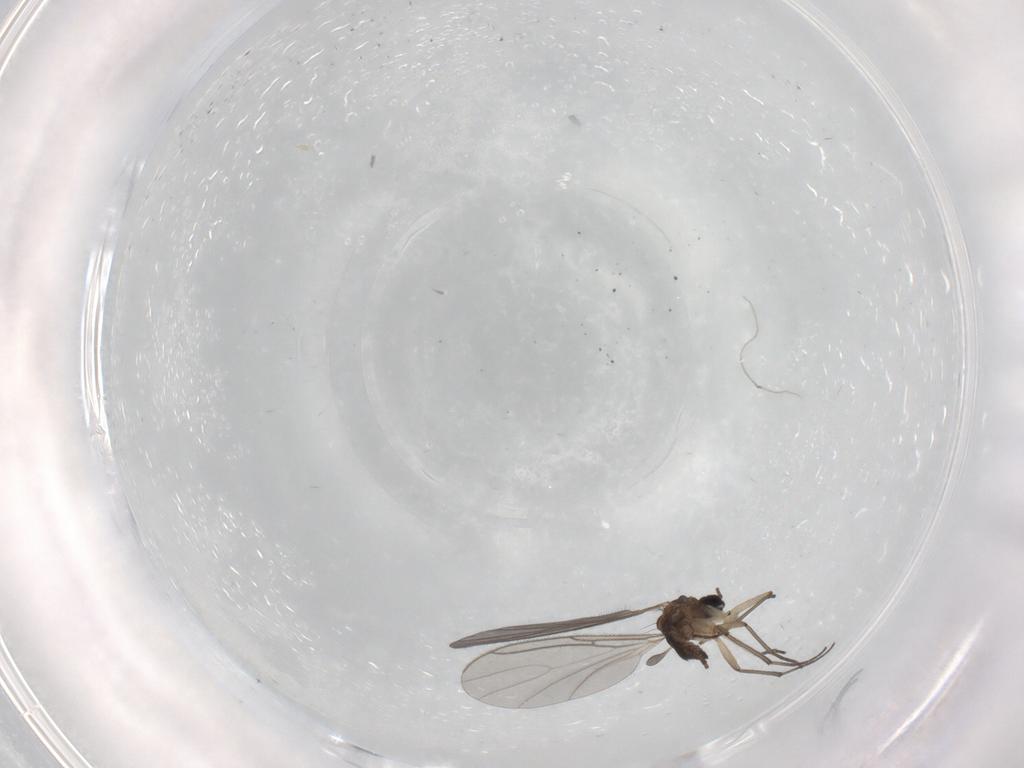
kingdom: Animalia
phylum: Arthropoda
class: Insecta
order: Diptera
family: Sciaridae
